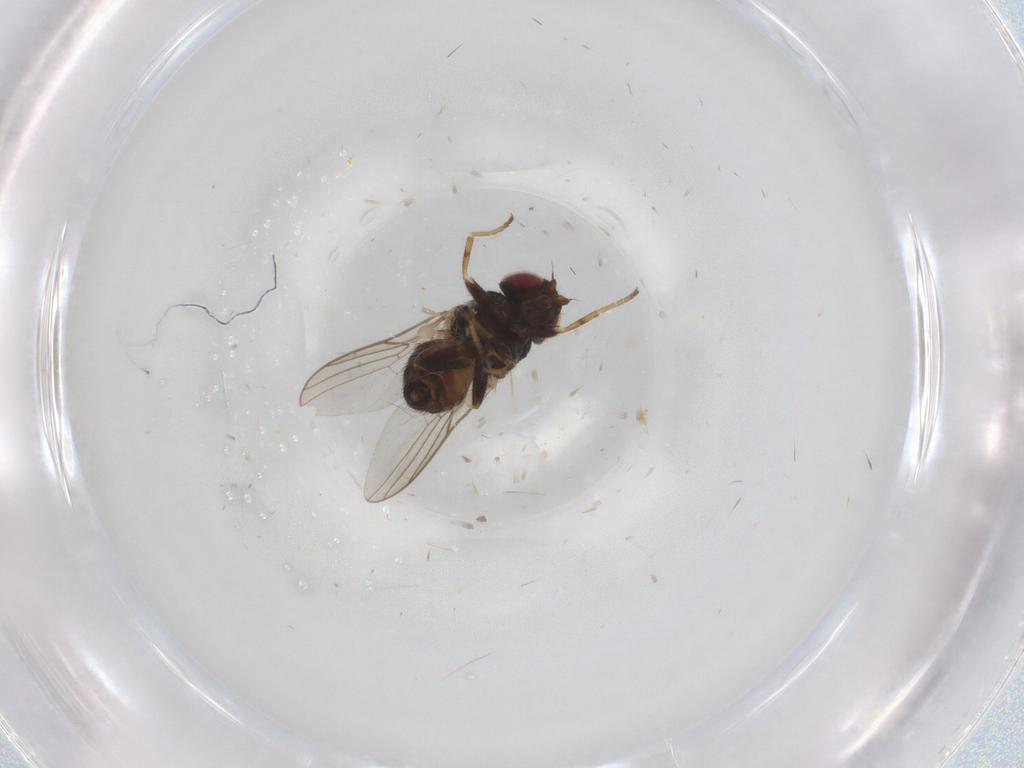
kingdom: Animalia
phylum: Arthropoda
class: Insecta
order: Diptera
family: Chloropidae
